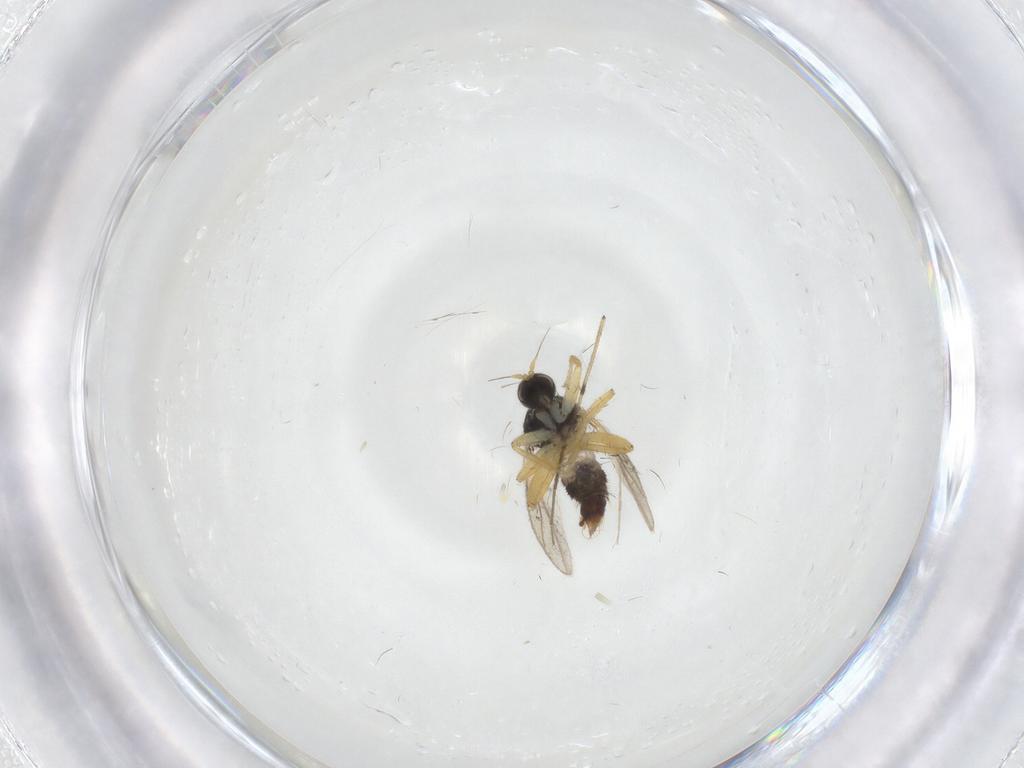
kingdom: Animalia
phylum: Arthropoda
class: Insecta
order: Diptera
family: Hybotidae
